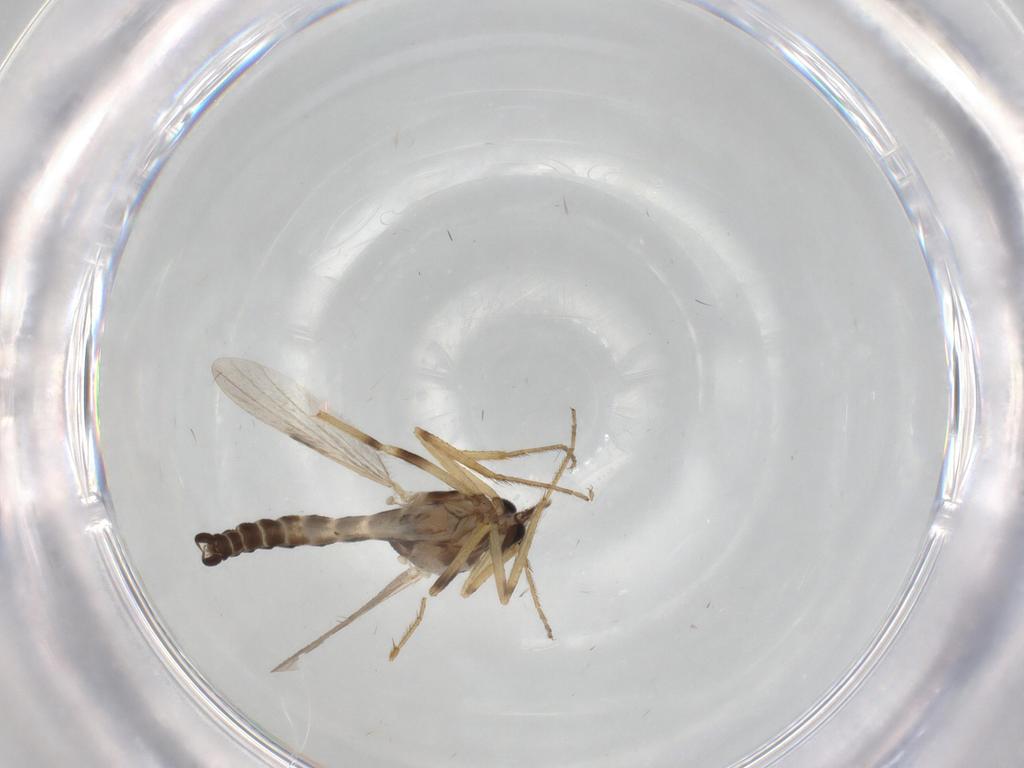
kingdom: Animalia
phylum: Arthropoda
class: Insecta
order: Diptera
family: Ceratopogonidae
